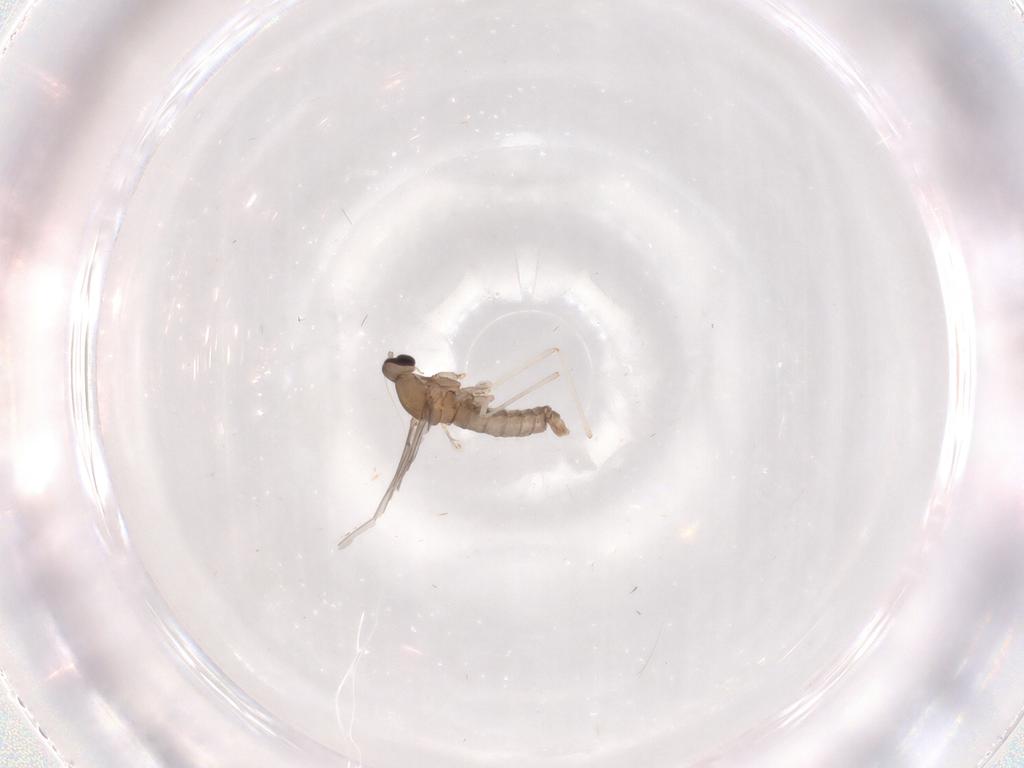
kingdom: Animalia
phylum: Arthropoda
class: Insecta
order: Diptera
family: Cecidomyiidae
